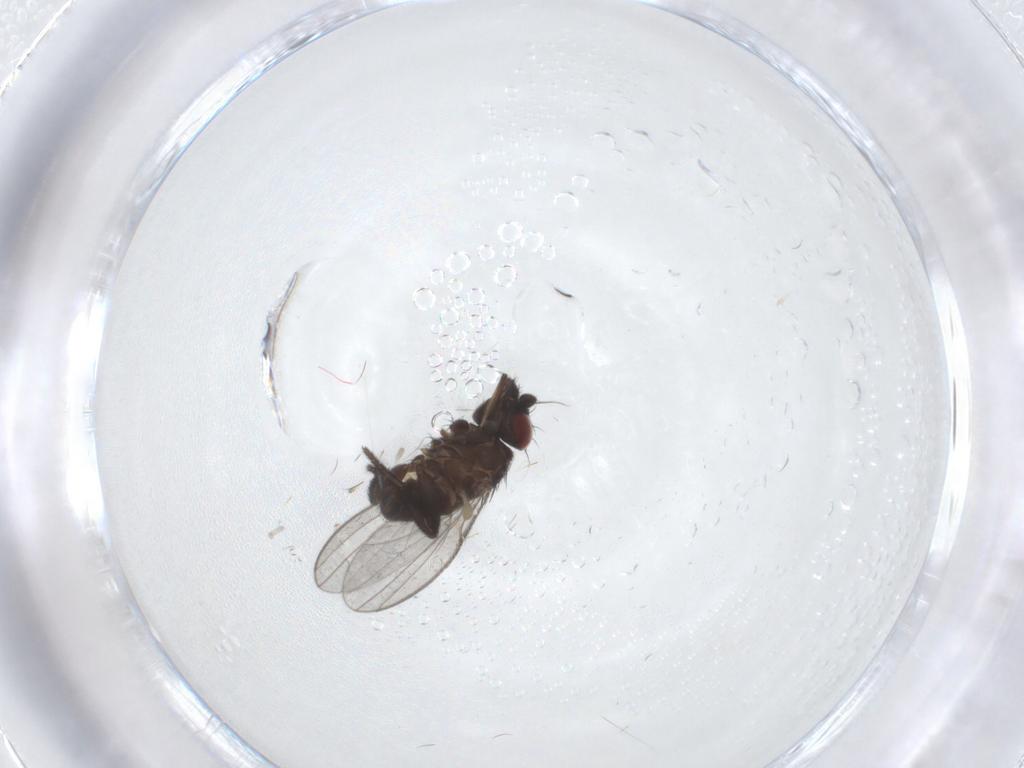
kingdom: Animalia
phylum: Arthropoda
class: Insecta
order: Diptera
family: Milichiidae
